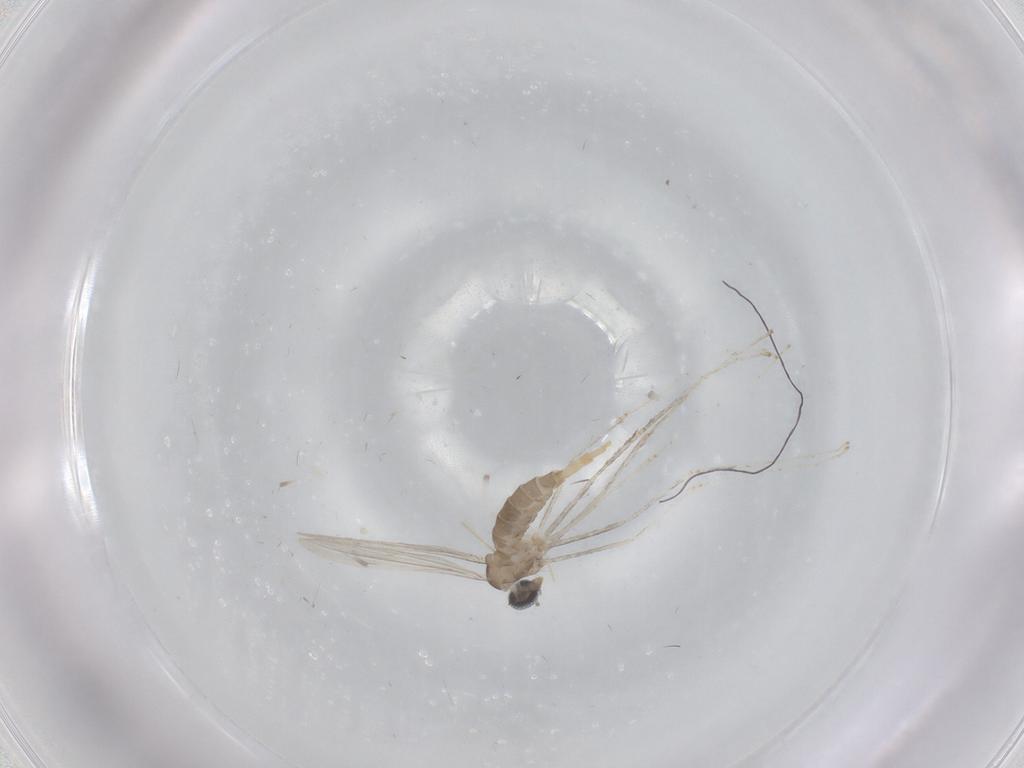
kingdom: Animalia
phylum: Arthropoda
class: Insecta
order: Diptera
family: Cecidomyiidae
